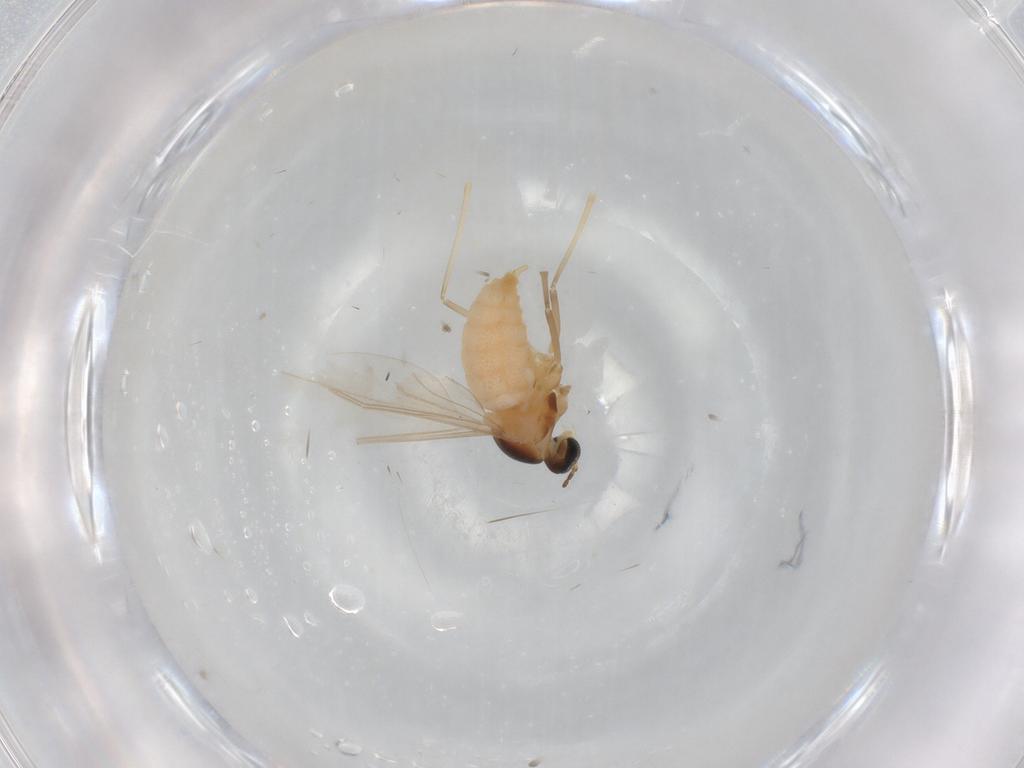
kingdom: Animalia
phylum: Arthropoda
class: Insecta
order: Diptera
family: Cecidomyiidae
